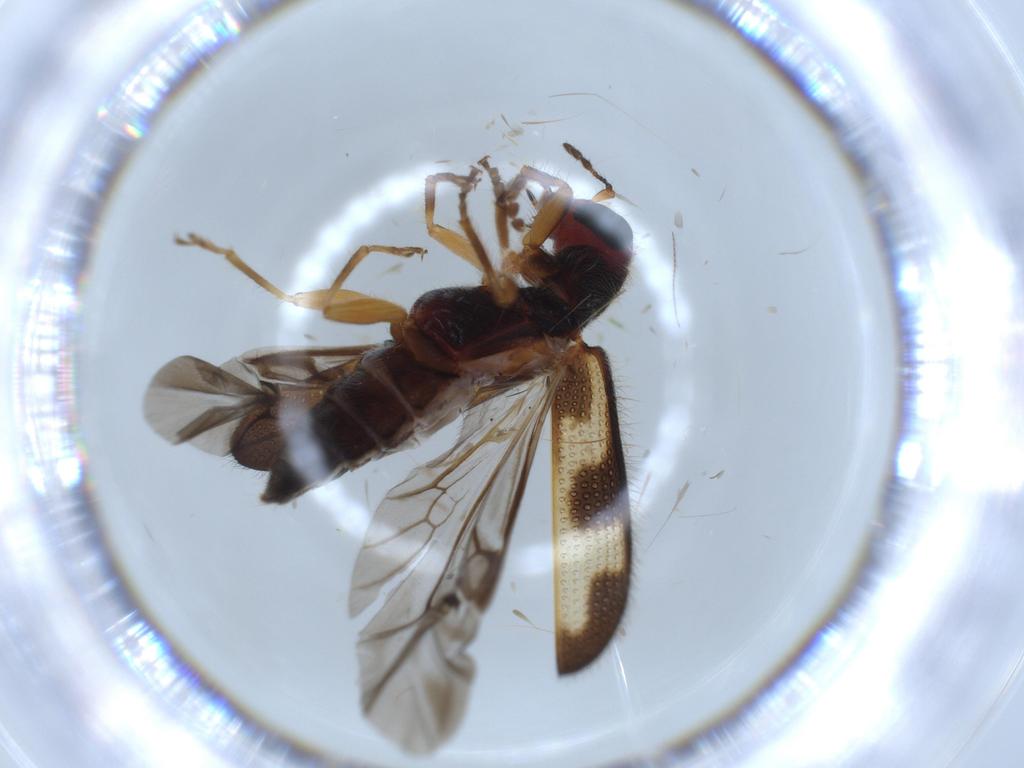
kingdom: Animalia
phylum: Arthropoda
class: Insecta
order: Coleoptera
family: Cleridae
